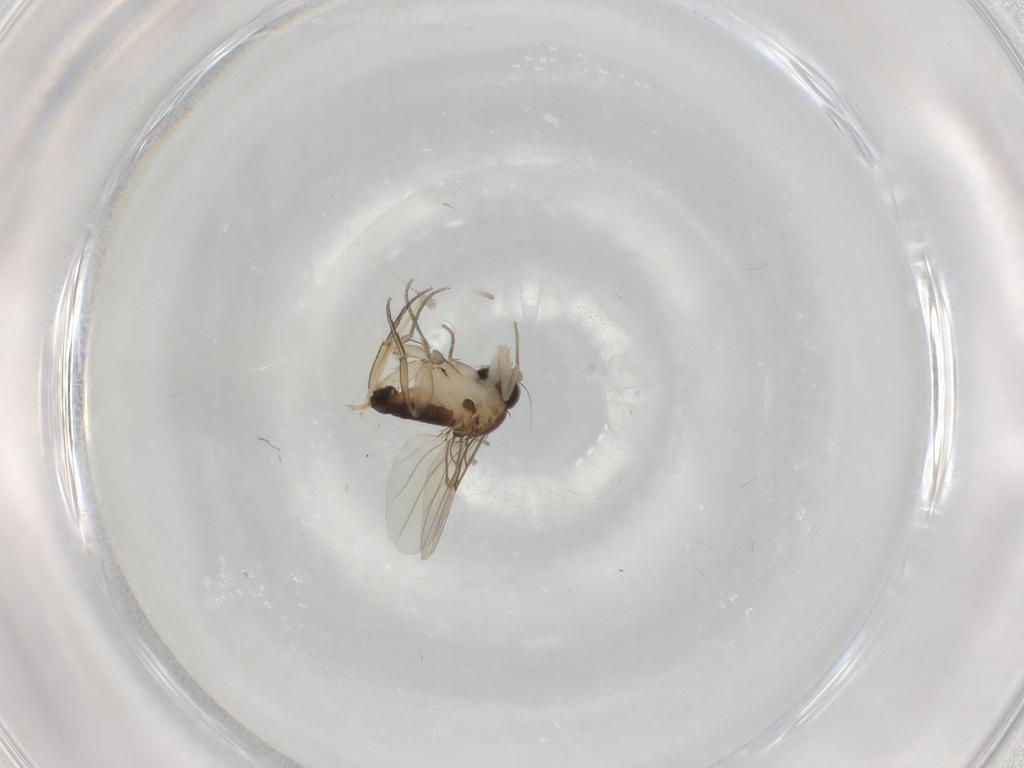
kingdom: Animalia
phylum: Arthropoda
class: Insecta
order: Diptera
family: Phoridae
